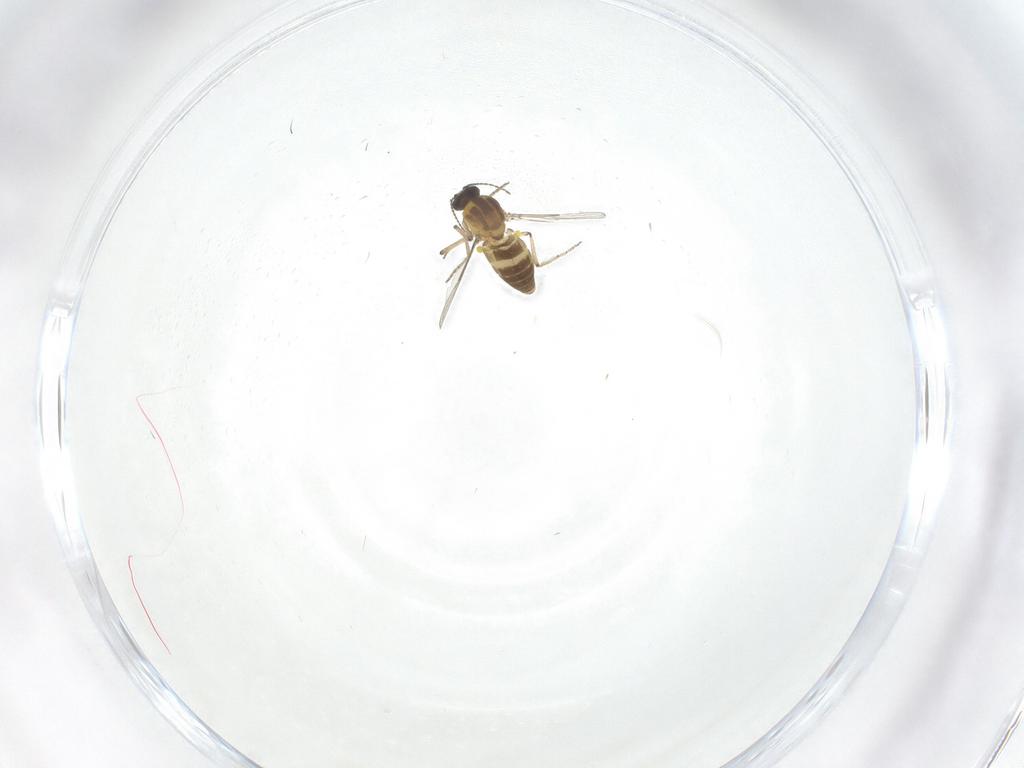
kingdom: Animalia
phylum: Arthropoda
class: Insecta
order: Diptera
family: Ceratopogonidae
